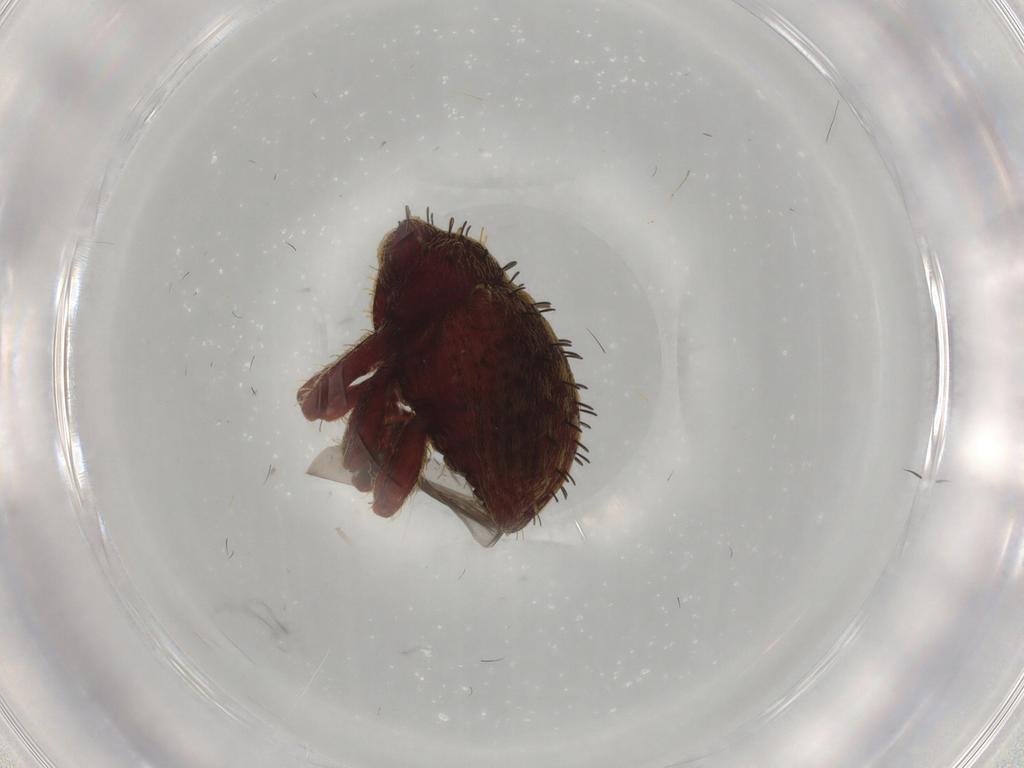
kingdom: Animalia
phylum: Arthropoda
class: Insecta
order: Coleoptera
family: Curculionidae
